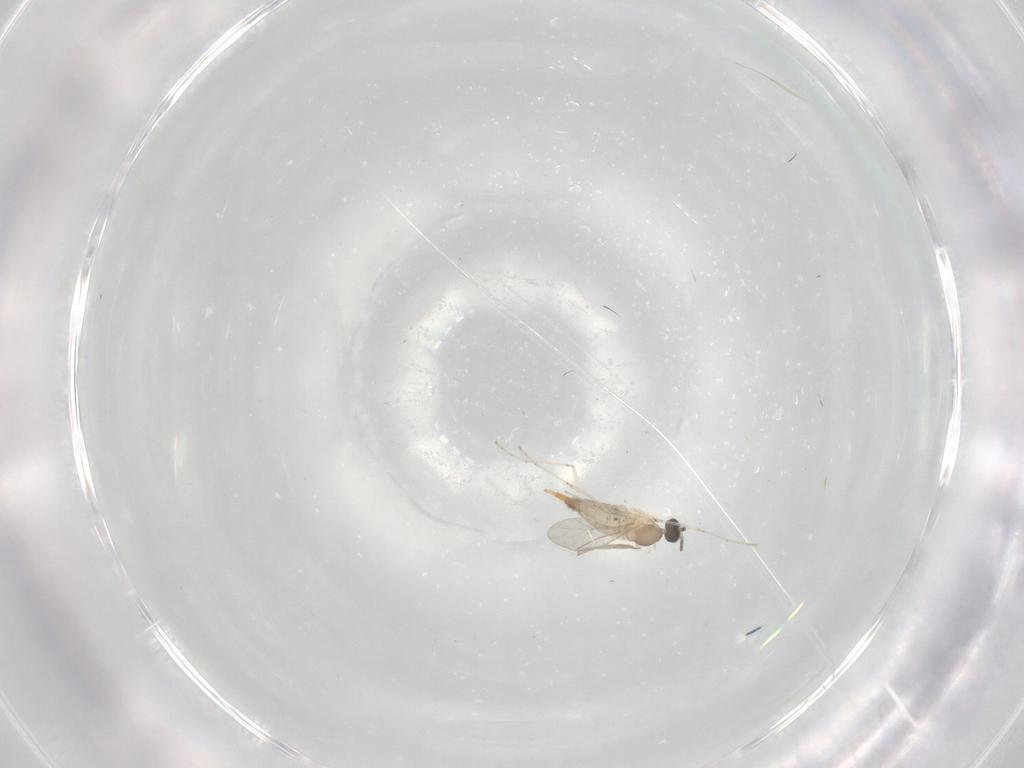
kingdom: Animalia
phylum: Arthropoda
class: Insecta
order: Diptera
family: Cecidomyiidae
